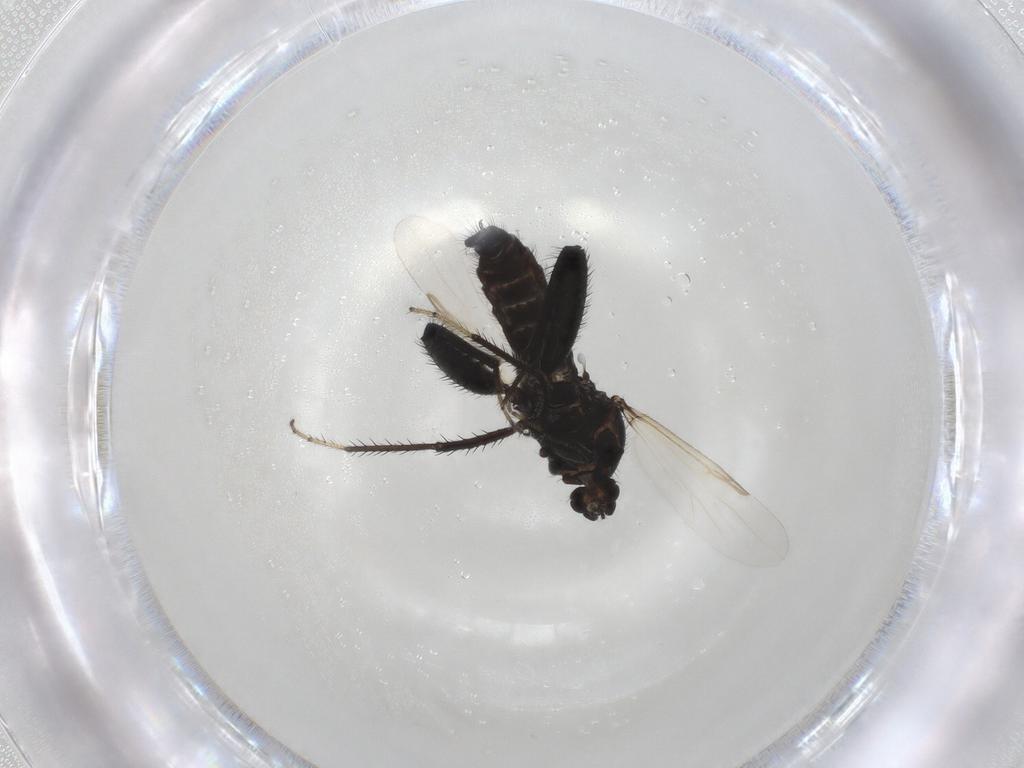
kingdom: Animalia
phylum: Arthropoda
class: Insecta
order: Diptera
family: Ceratopogonidae
